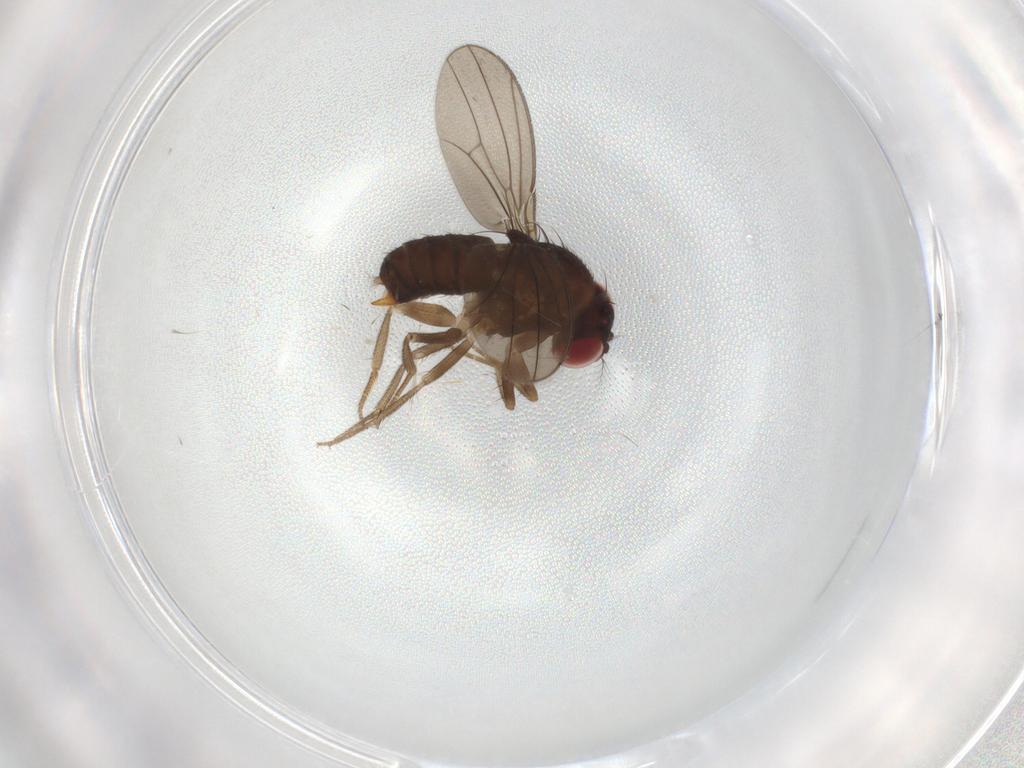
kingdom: Animalia
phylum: Arthropoda
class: Insecta
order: Diptera
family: Drosophilidae
